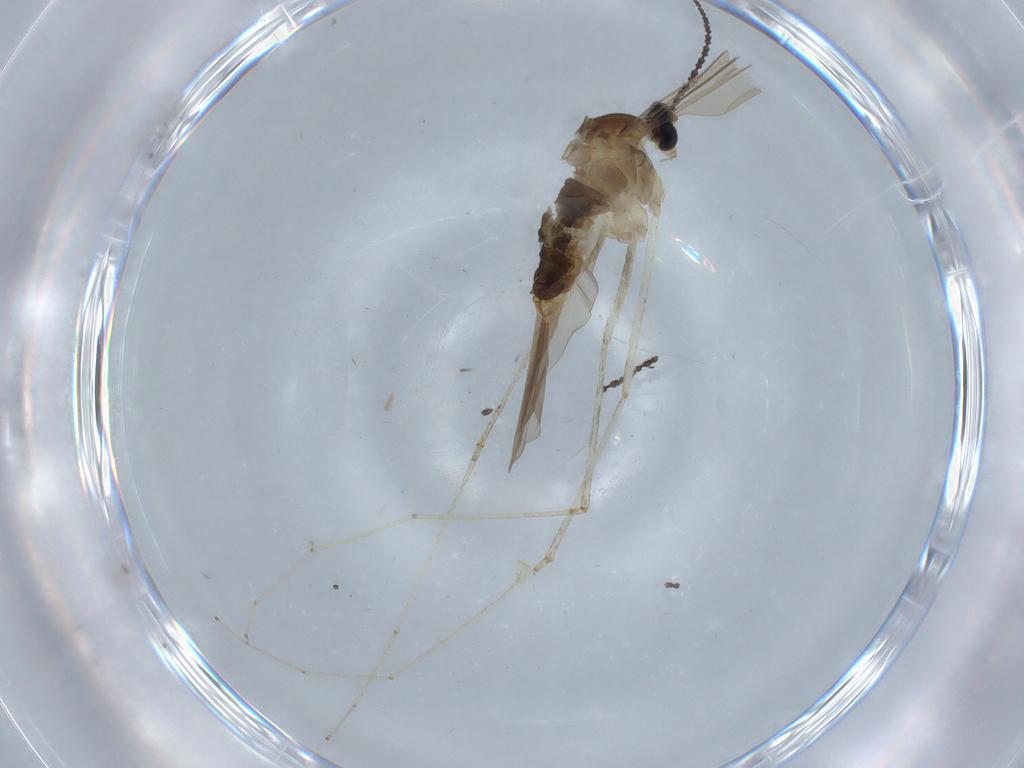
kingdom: Animalia
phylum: Arthropoda
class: Insecta
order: Diptera
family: Cecidomyiidae
